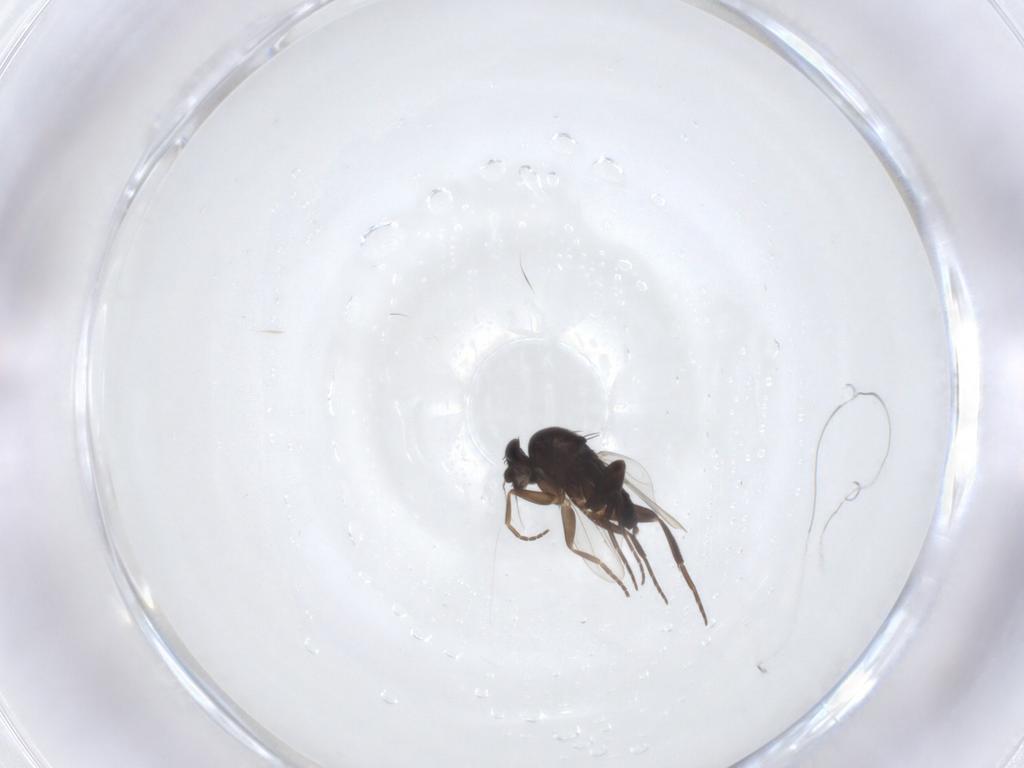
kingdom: Animalia
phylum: Arthropoda
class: Insecta
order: Diptera
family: Phoridae
